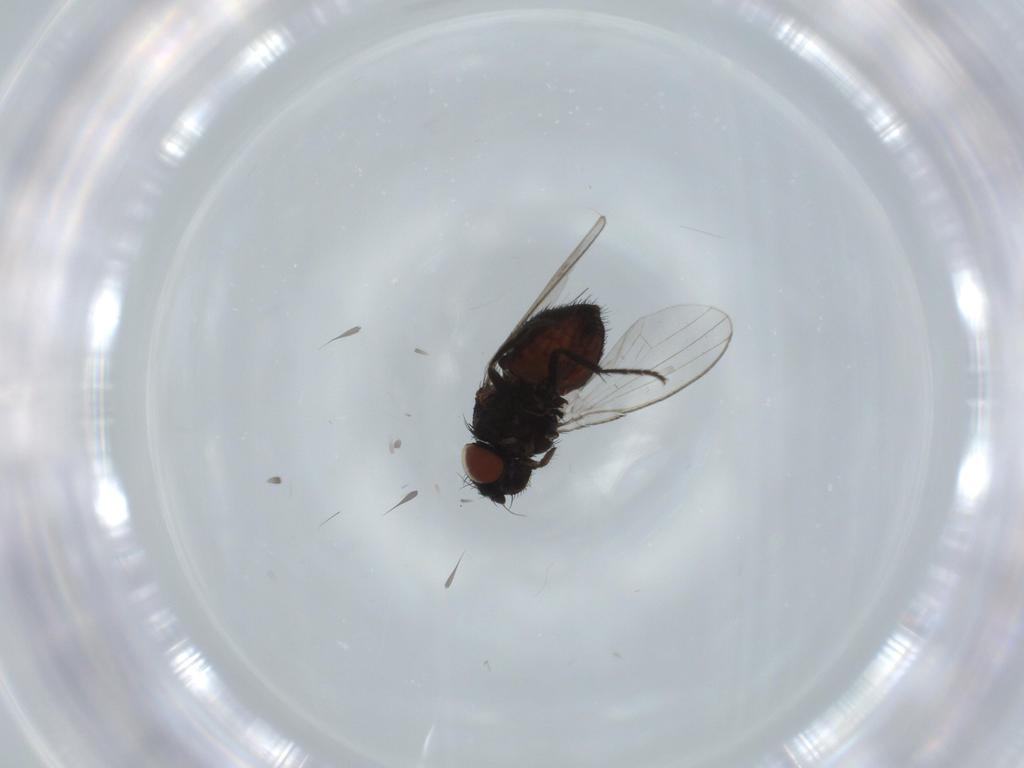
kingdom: Animalia
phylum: Arthropoda
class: Insecta
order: Diptera
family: Milichiidae
